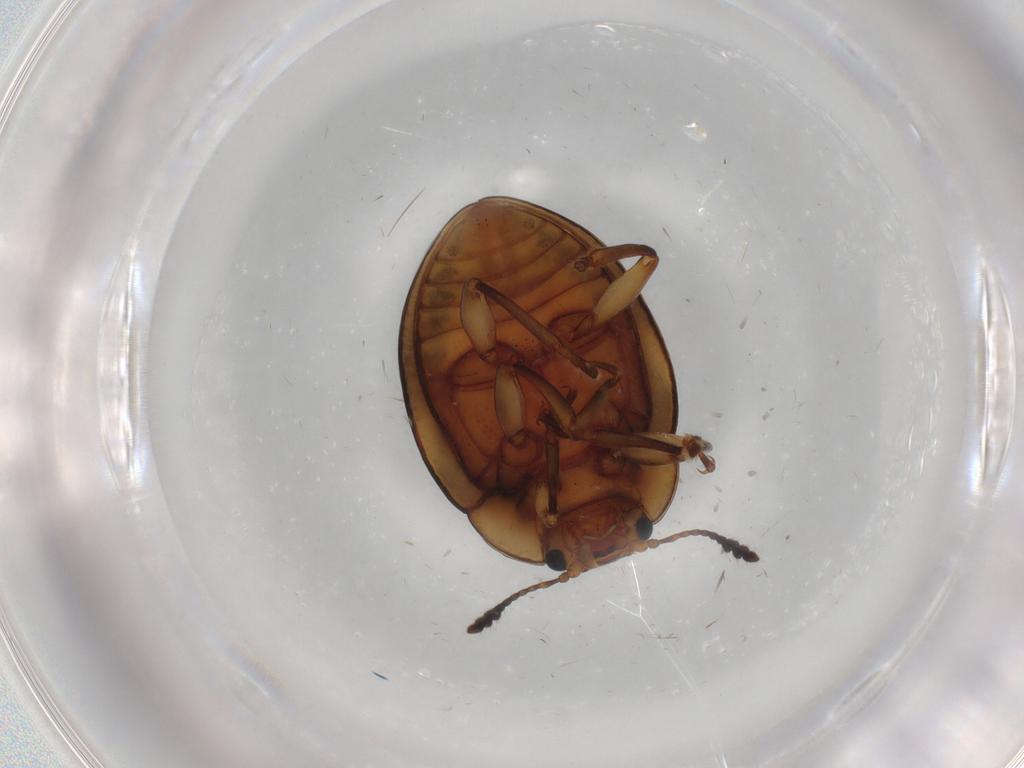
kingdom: Animalia
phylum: Arthropoda
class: Insecta
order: Coleoptera
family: Erotylidae
